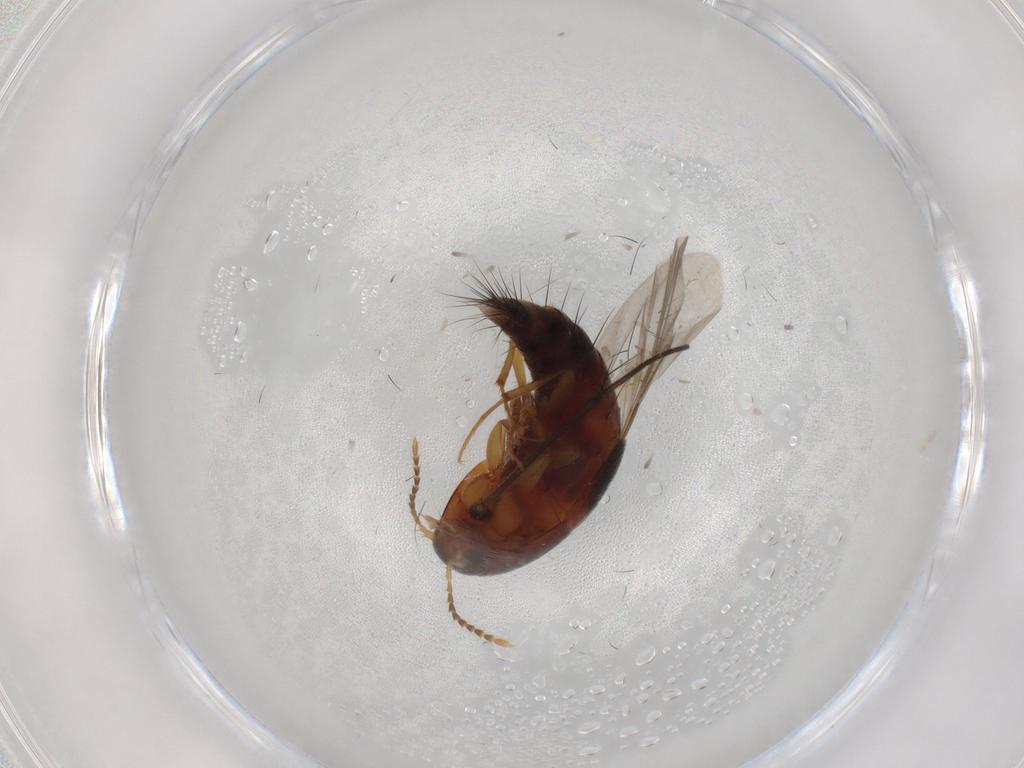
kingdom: Animalia
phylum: Arthropoda
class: Insecta
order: Coleoptera
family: Staphylinidae
